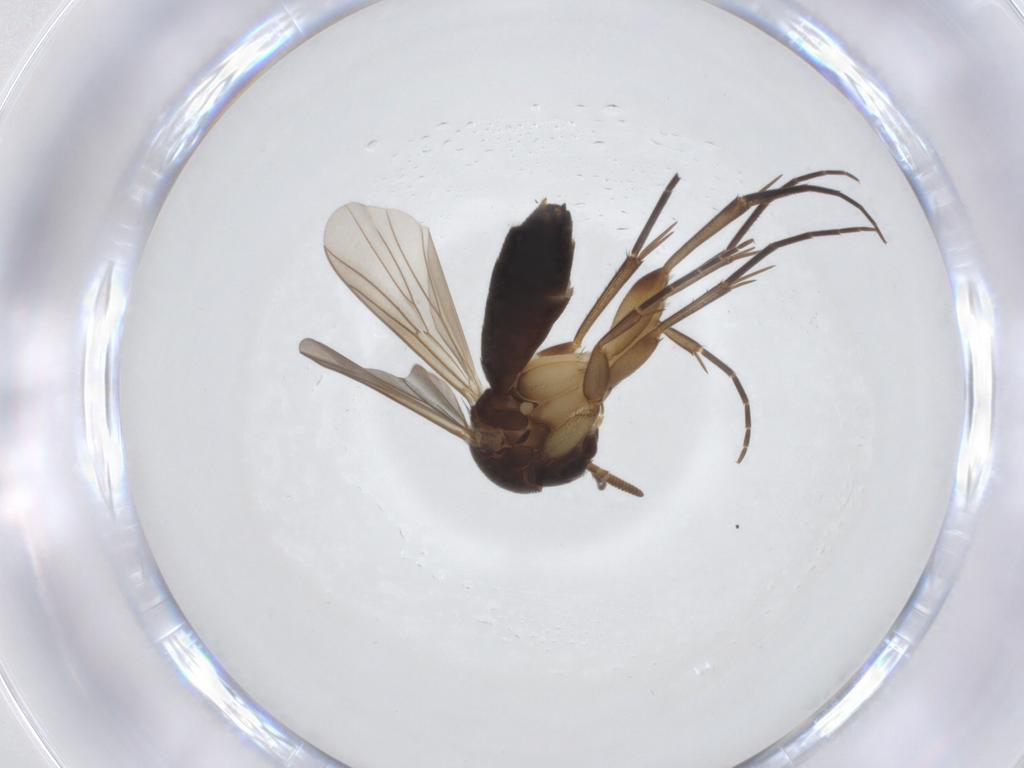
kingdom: Animalia
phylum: Arthropoda
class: Insecta
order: Diptera
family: Mycetophilidae
